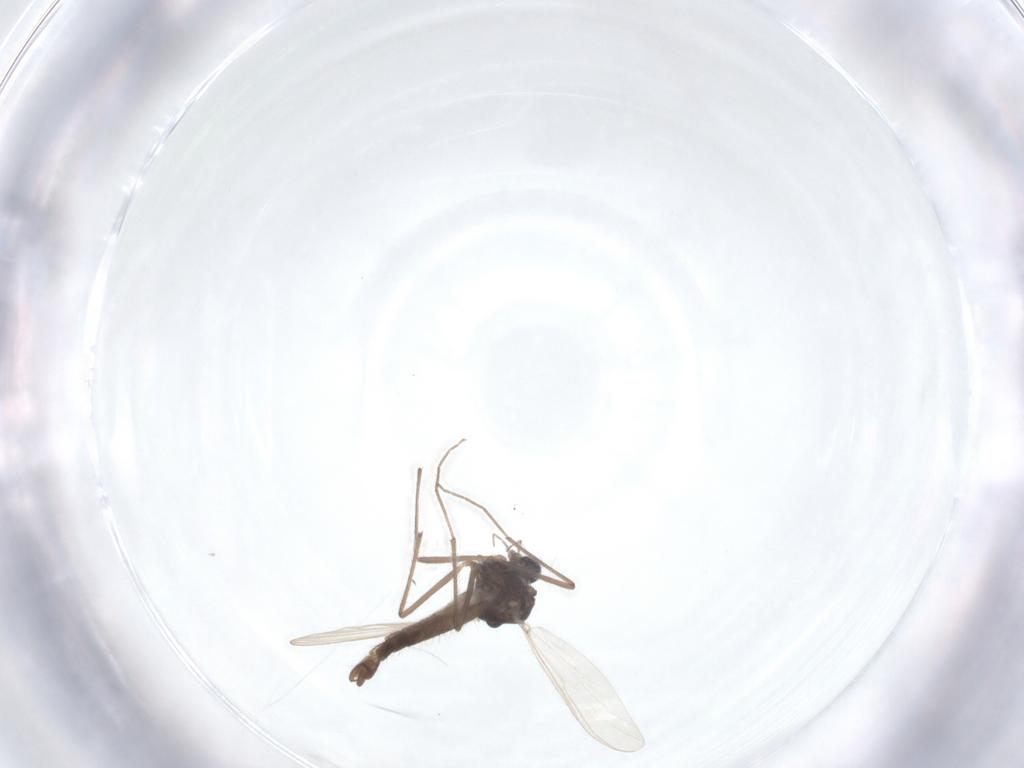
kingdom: Animalia
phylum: Arthropoda
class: Insecta
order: Diptera
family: Chironomidae
